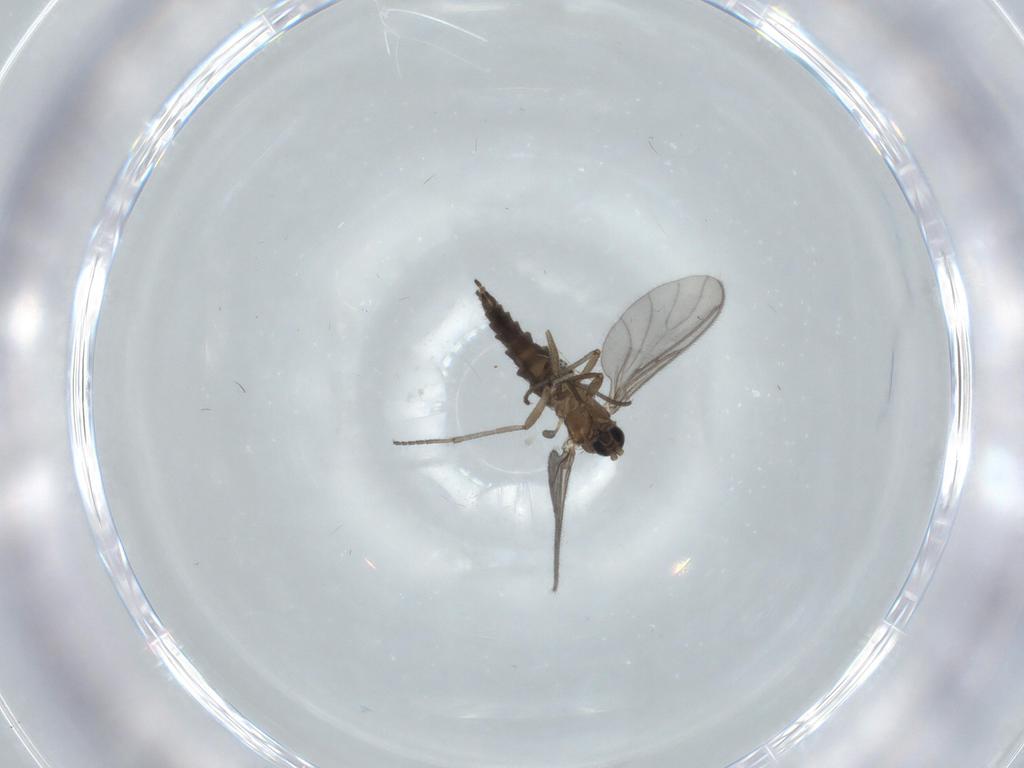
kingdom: Animalia
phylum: Arthropoda
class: Insecta
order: Diptera
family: Sciaridae
